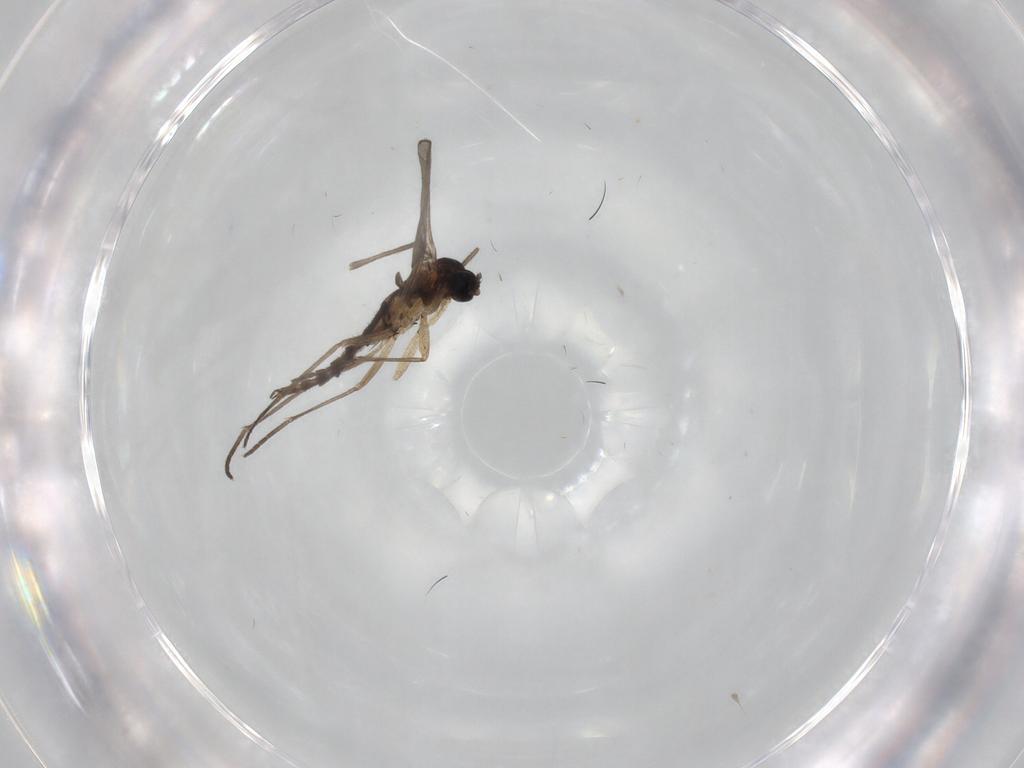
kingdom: Animalia
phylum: Arthropoda
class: Insecta
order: Diptera
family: Sciaridae
